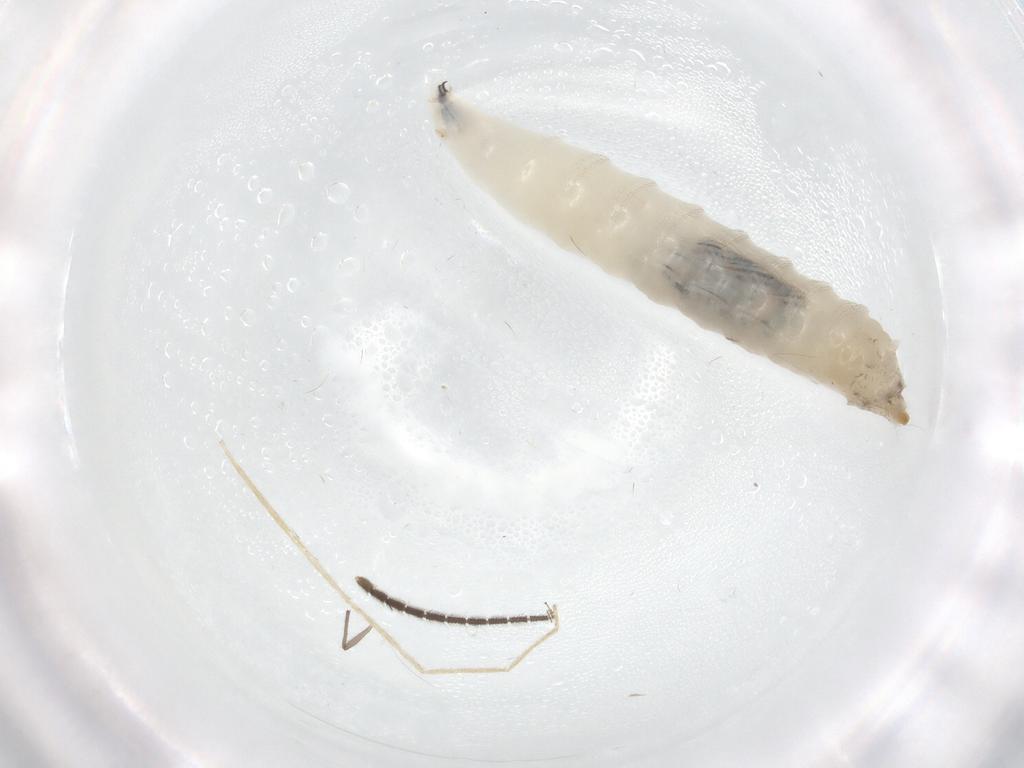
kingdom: Animalia
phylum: Arthropoda
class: Insecta
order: Diptera
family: Sciaridae
